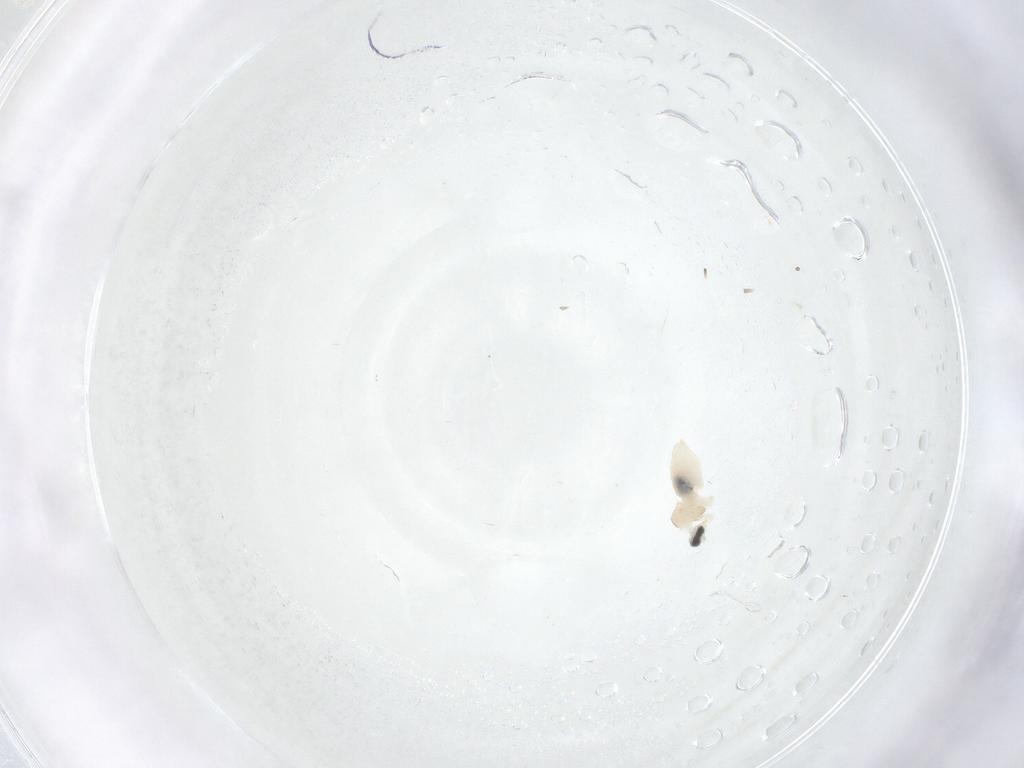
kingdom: Animalia
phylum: Arthropoda
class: Insecta
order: Diptera
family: Cecidomyiidae
